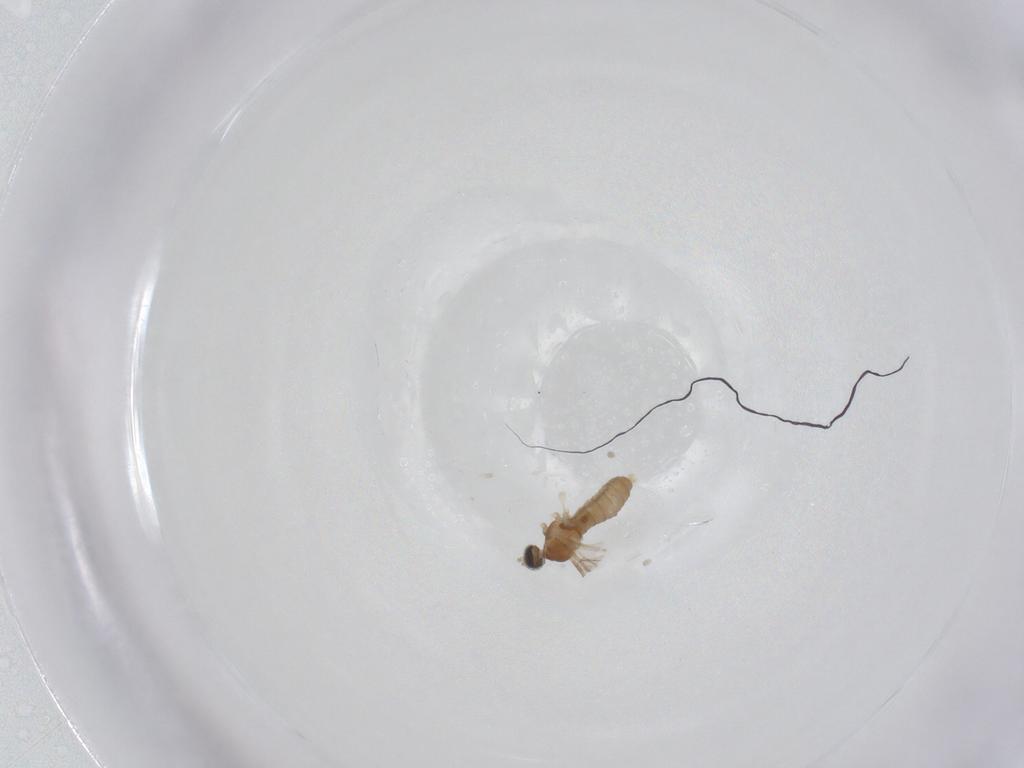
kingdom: Animalia
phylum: Arthropoda
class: Insecta
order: Diptera
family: Cecidomyiidae
